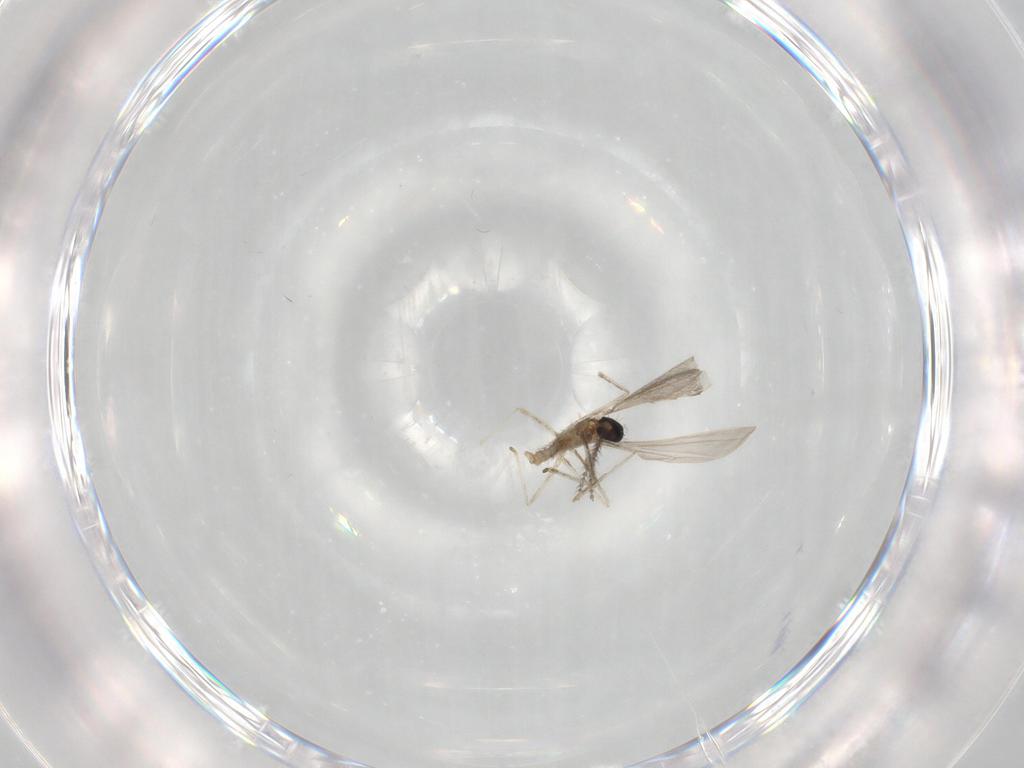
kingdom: Animalia
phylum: Arthropoda
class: Insecta
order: Diptera
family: Cecidomyiidae
